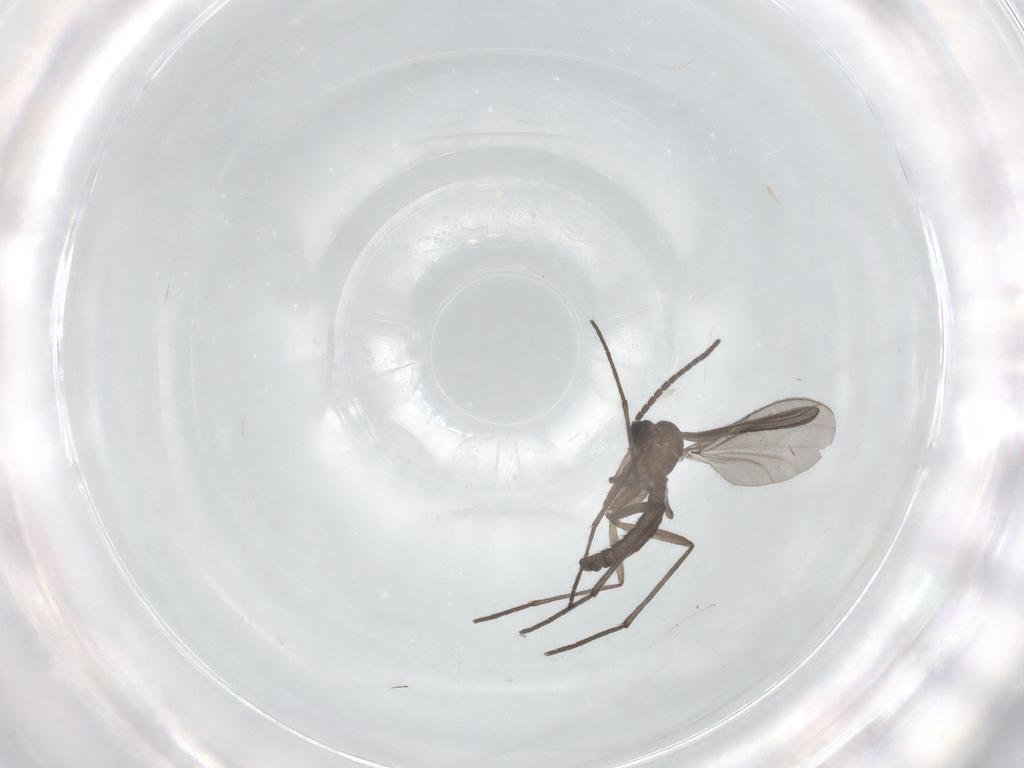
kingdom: Animalia
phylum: Arthropoda
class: Insecta
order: Diptera
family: Sciaridae
